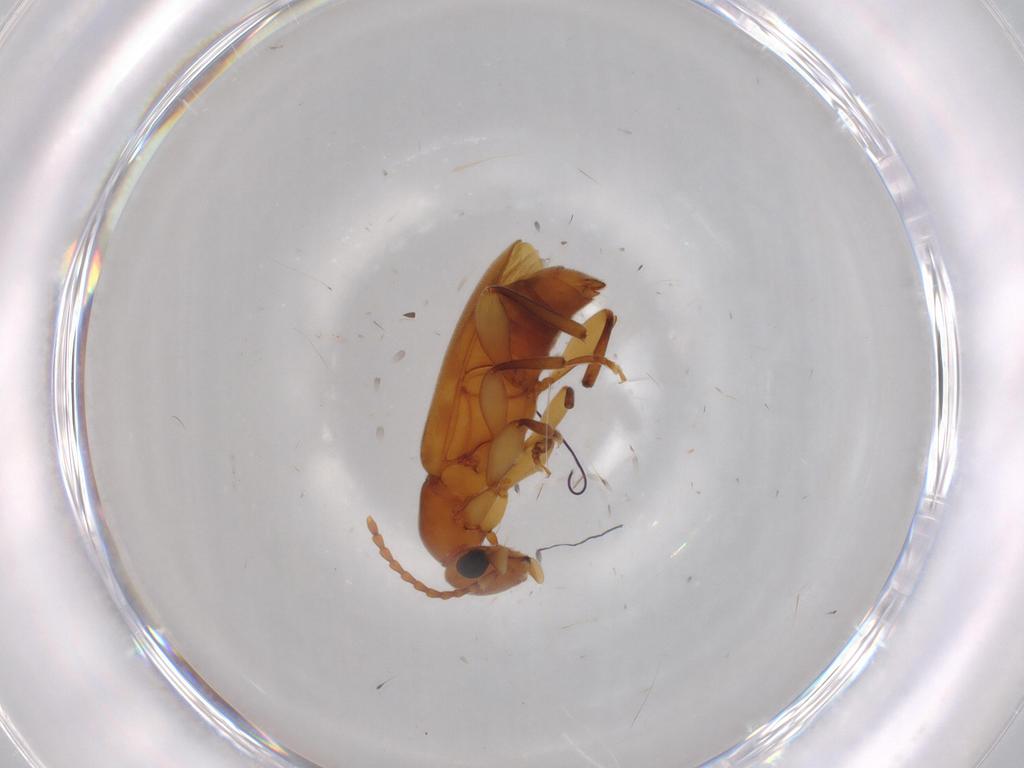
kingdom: Animalia
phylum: Arthropoda
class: Insecta
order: Coleoptera
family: Anthicidae
